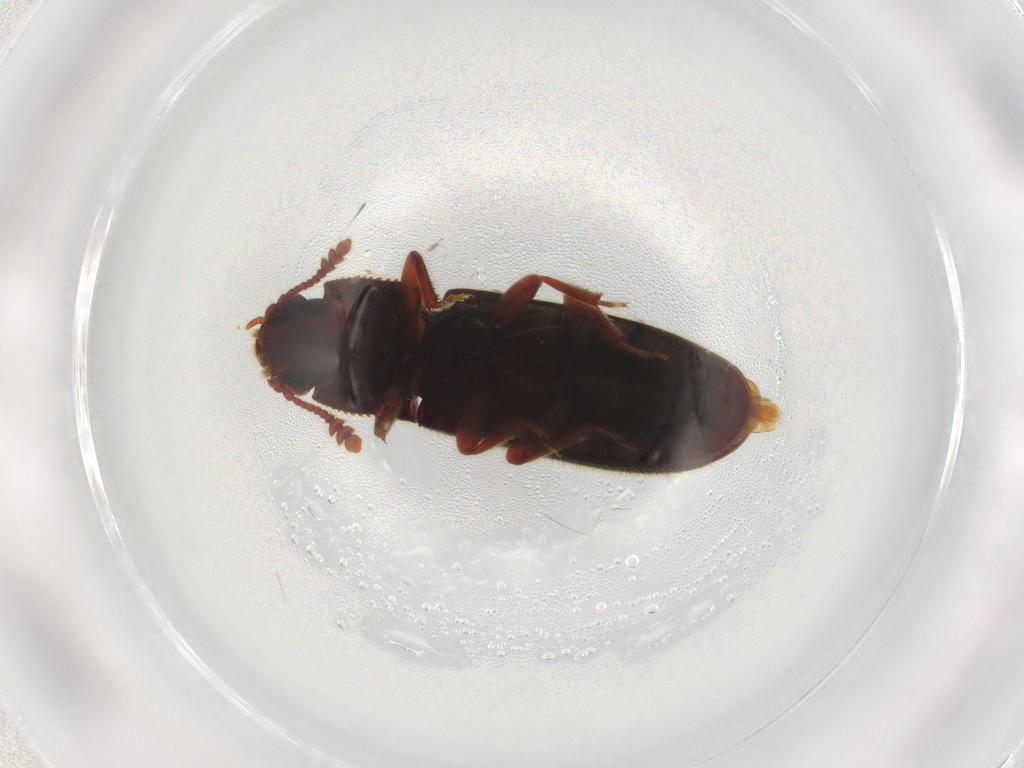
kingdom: Animalia
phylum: Arthropoda
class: Insecta
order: Coleoptera
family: Biphyllidae
